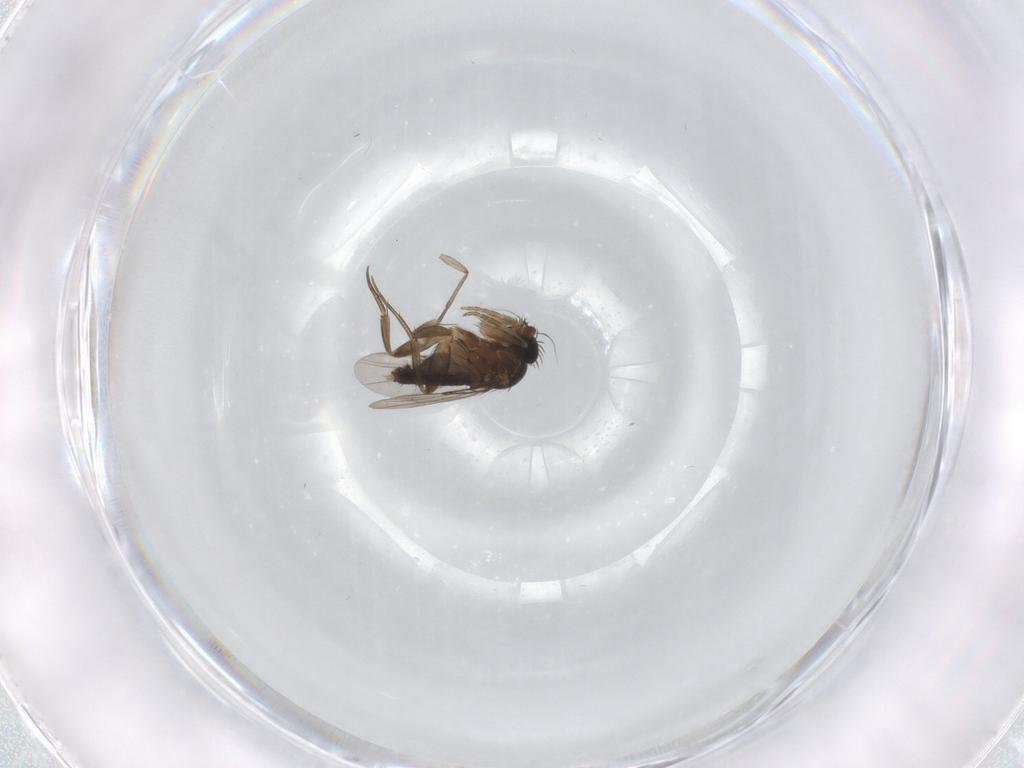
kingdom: Animalia
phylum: Arthropoda
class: Insecta
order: Diptera
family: Sciaridae
